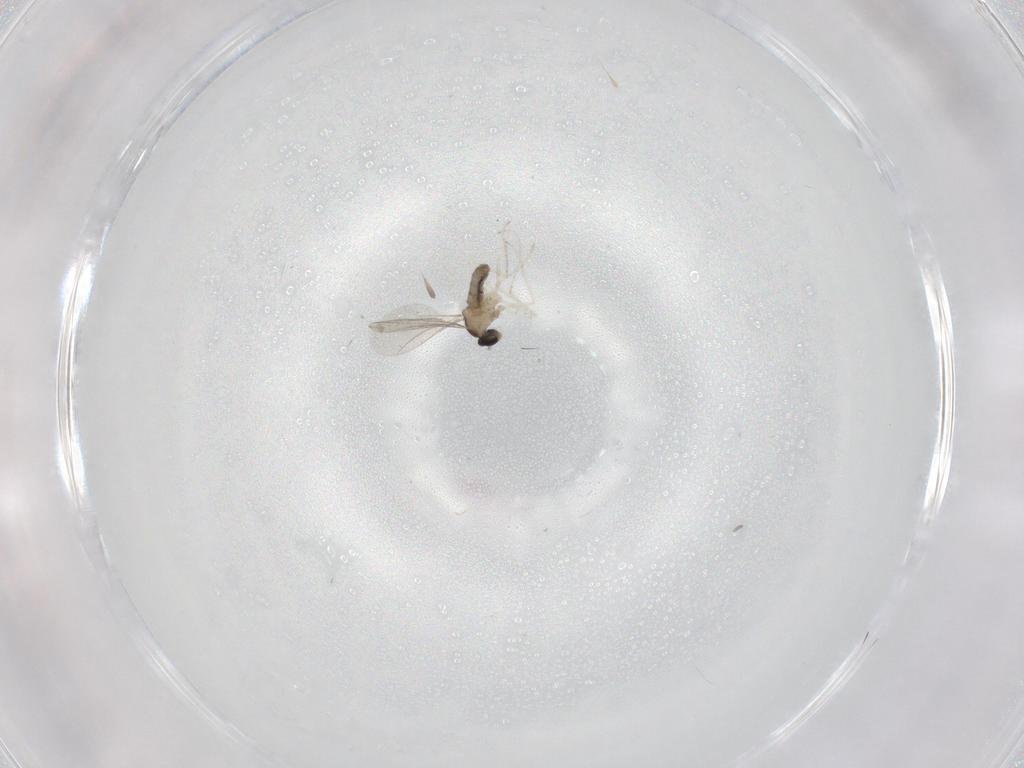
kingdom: Animalia
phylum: Arthropoda
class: Insecta
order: Diptera
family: Cecidomyiidae
